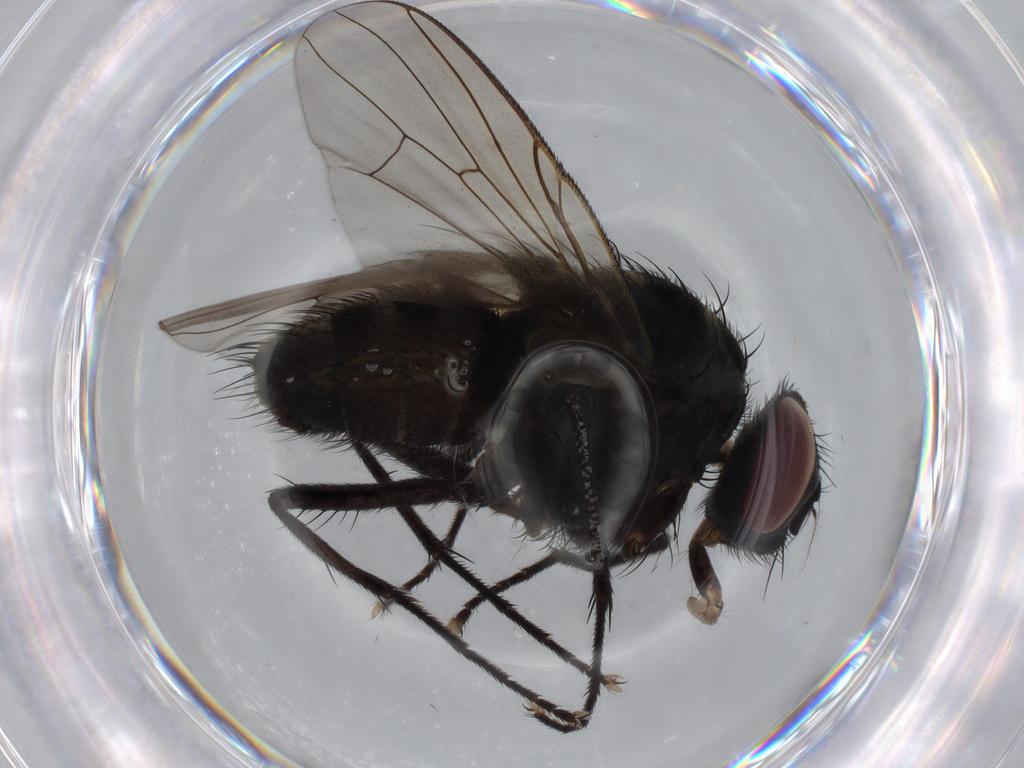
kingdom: Animalia
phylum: Arthropoda
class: Insecta
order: Diptera
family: Muscidae
